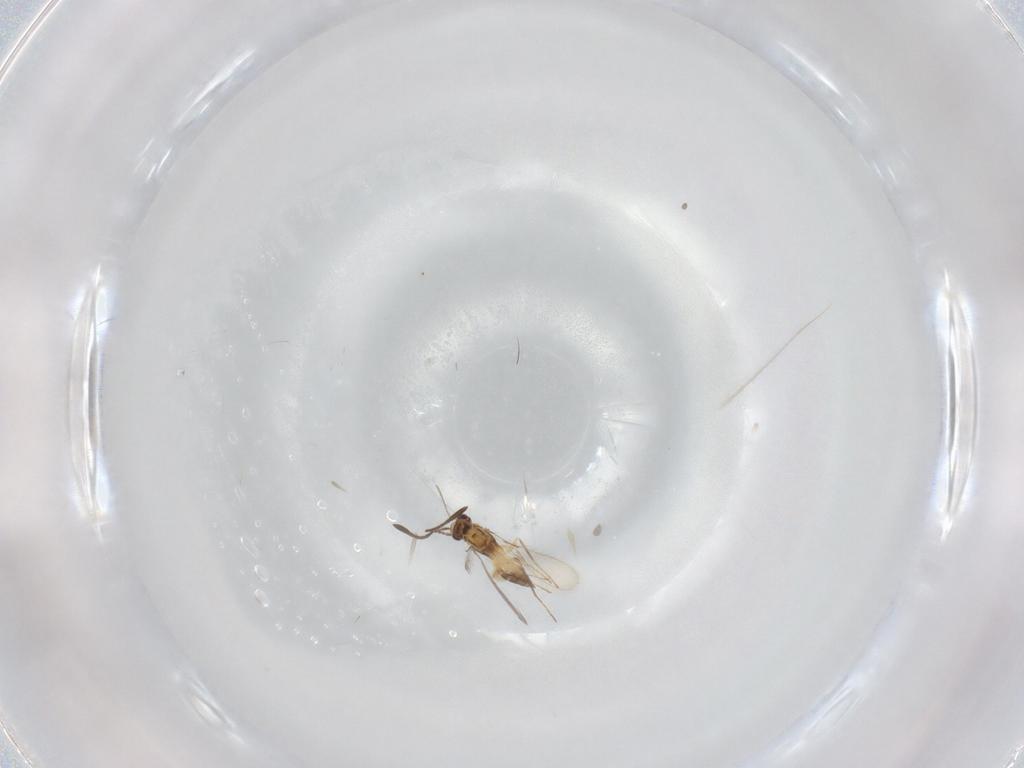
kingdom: Animalia
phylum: Arthropoda
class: Insecta
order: Hymenoptera
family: Mymaridae
